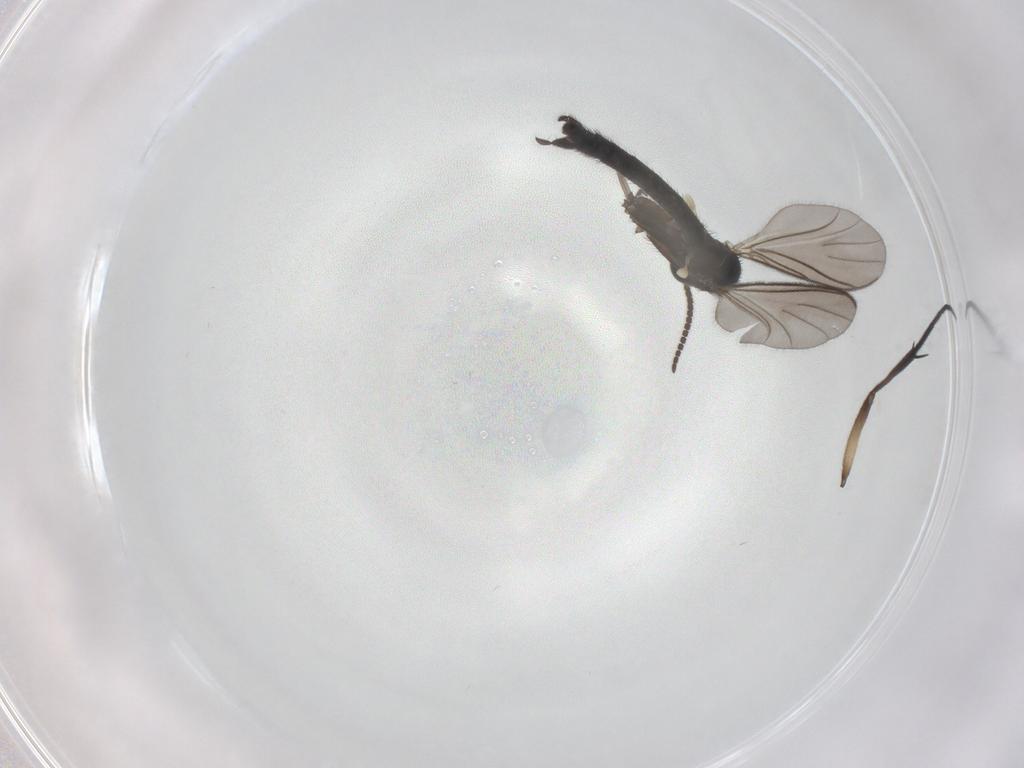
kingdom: Animalia
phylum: Arthropoda
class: Insecta
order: Diptera
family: Keroplatidae
